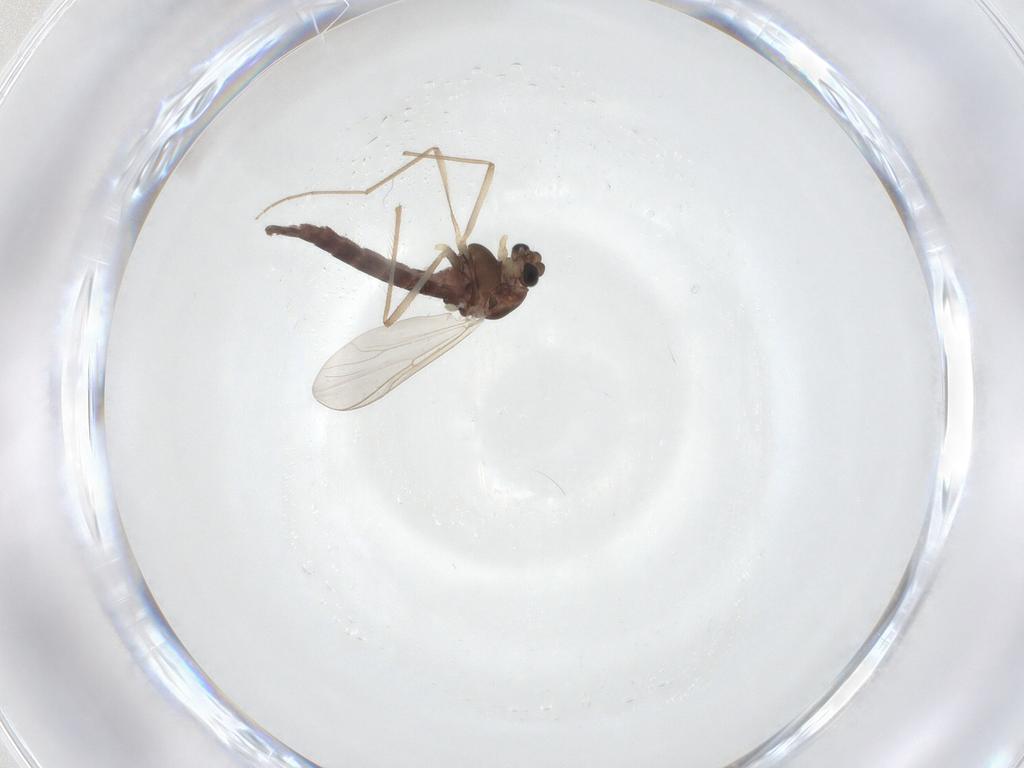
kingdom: Animalia
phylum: Arthropoda
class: Insecta
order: Diptera
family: Chironomidae
